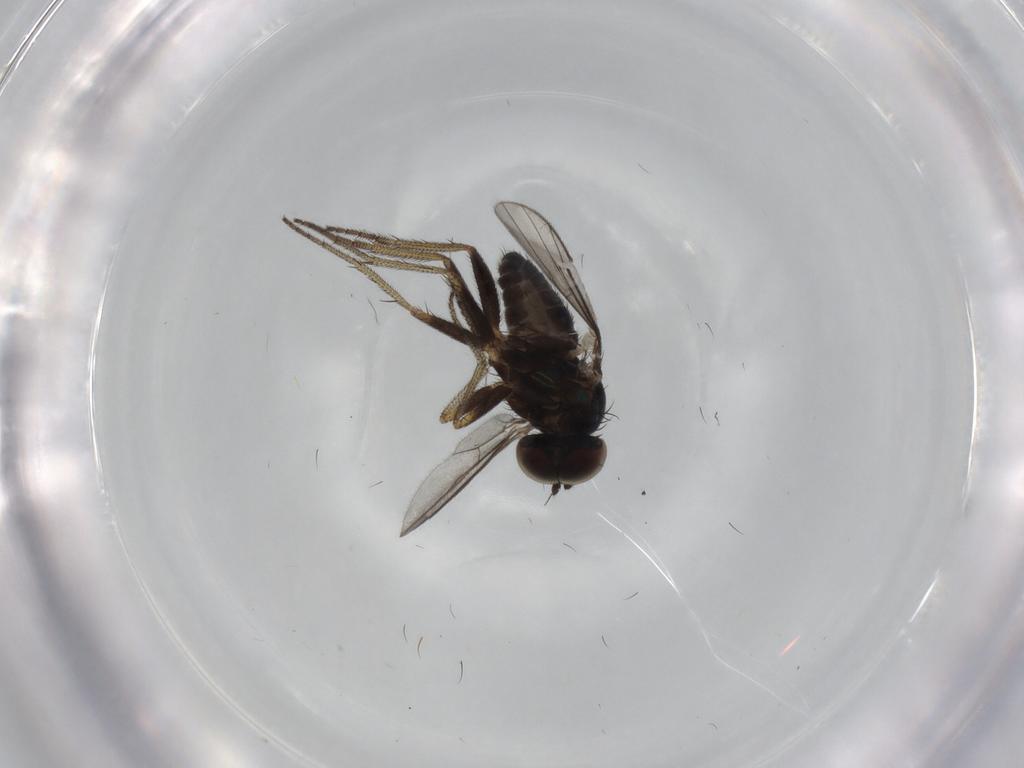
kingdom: Animalia
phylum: Arthropoda
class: Insecta
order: Diptera
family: Dolichopodidae
